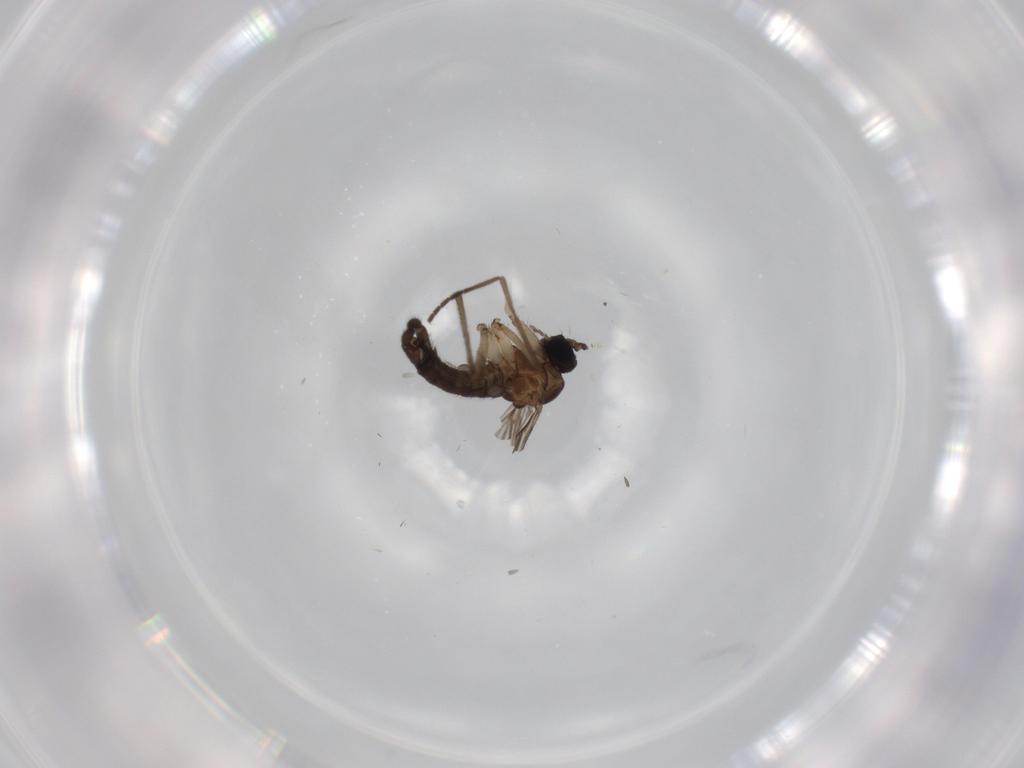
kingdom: Animalia
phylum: Arthropoda
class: Insecta
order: Diptera
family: Sciaridae
